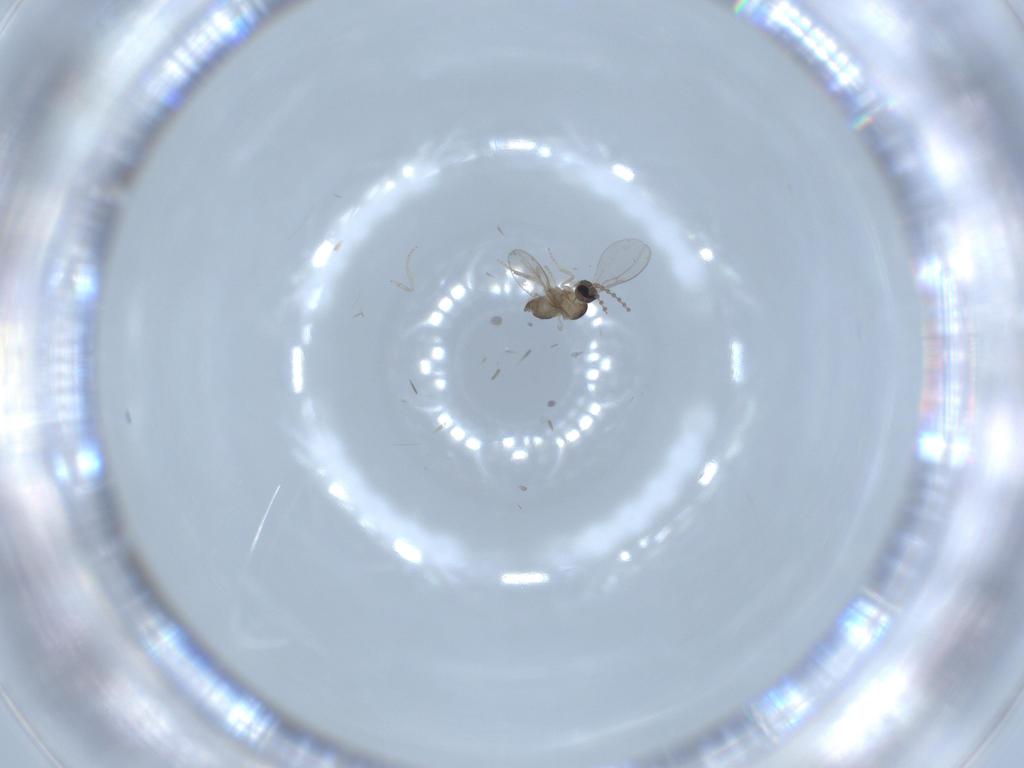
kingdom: Animalia
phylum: Arthropoda
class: Insecta
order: Diptera
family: Cecidomyiidae
